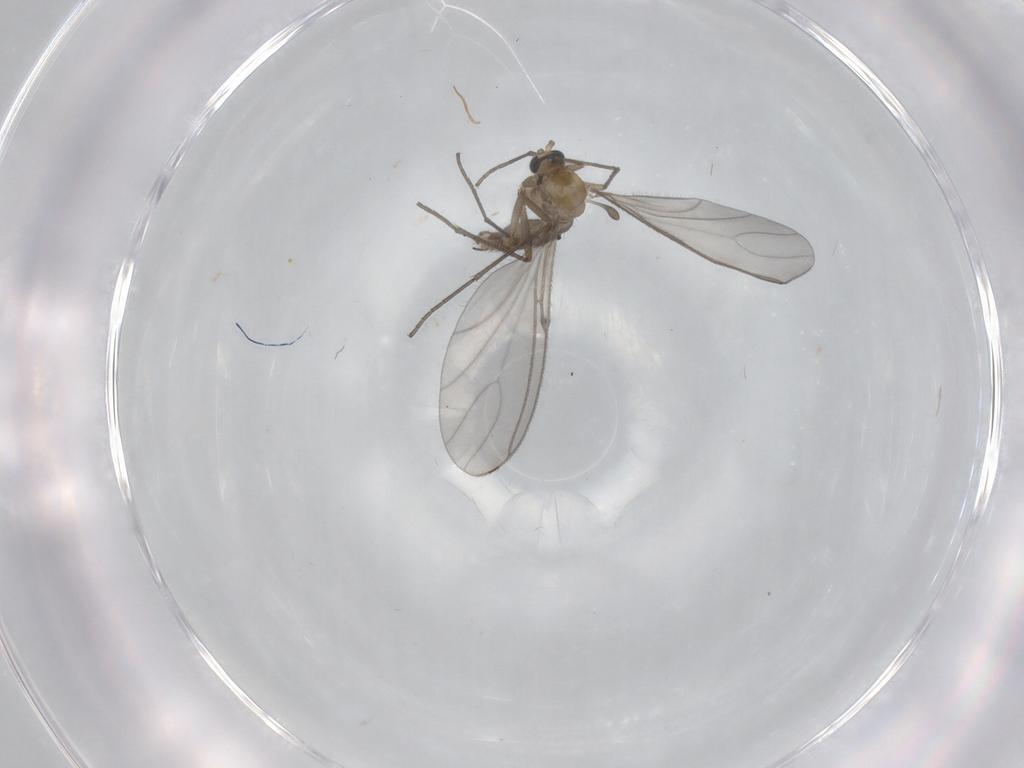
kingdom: Animalia
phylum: Arthropoda
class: Insecta
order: Diptera
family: Sciaridae
